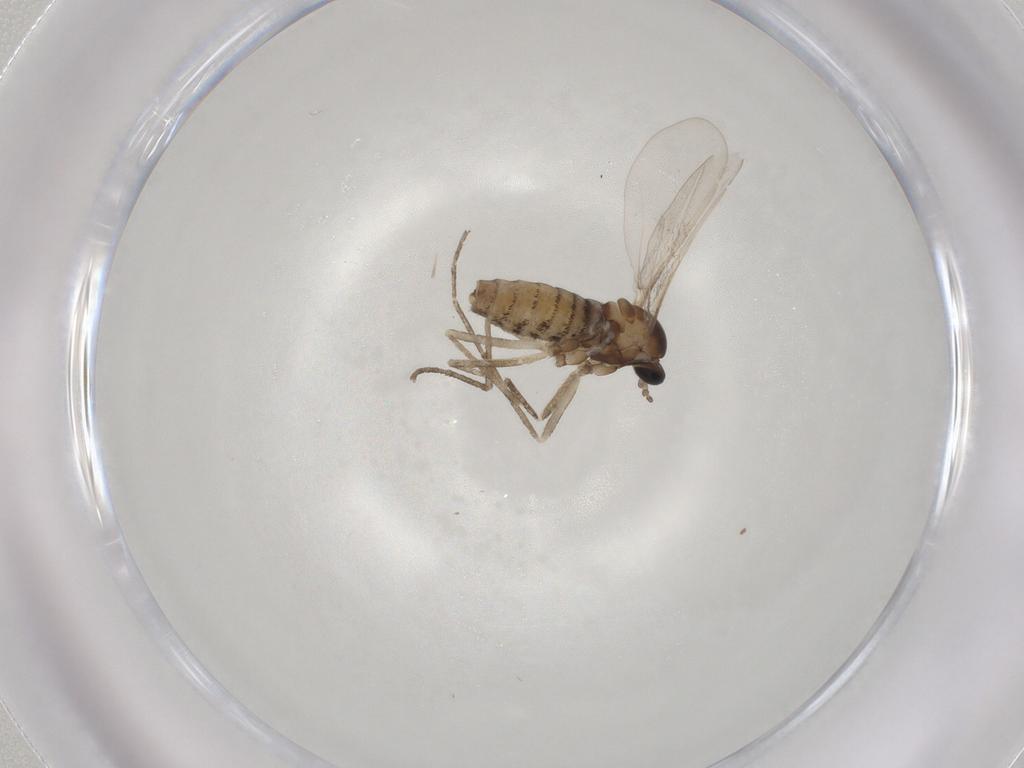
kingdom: Animalia
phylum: Arthropoda
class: Insecta
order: Diptera
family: Cecidomyiidae
